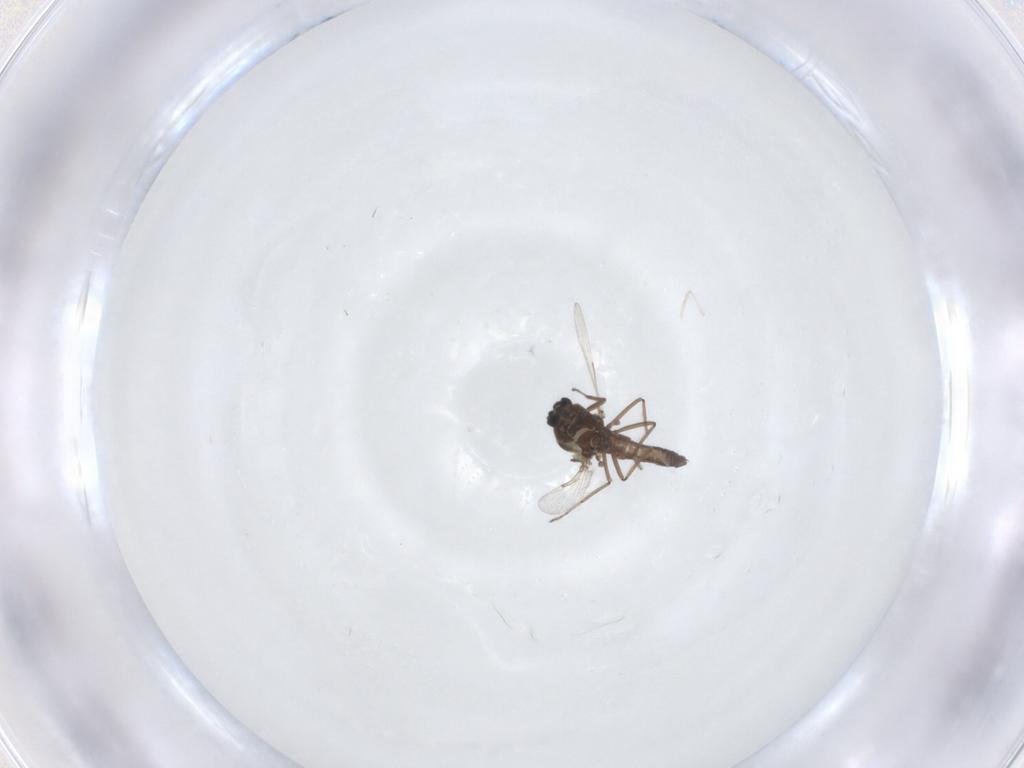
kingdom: Animalia
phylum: Arthropoda
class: Insecta
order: Diptera
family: Ceratopogonidae
